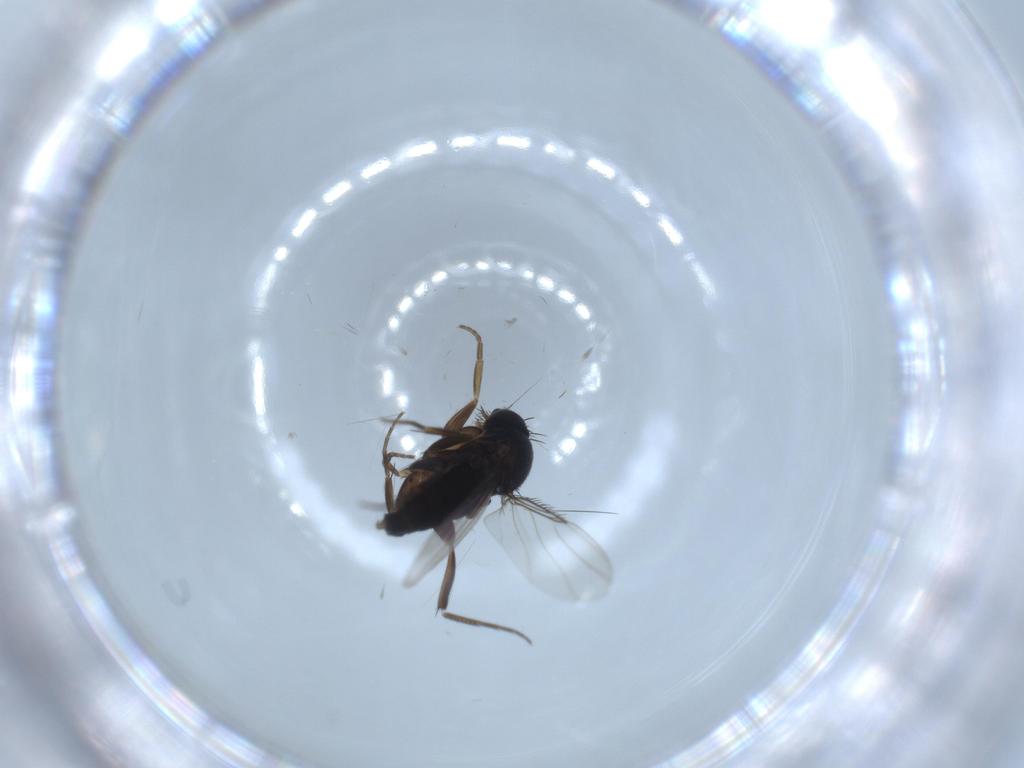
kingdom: Animalia
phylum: Arthropoda
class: Insecta
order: Diptera
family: Phoridae
